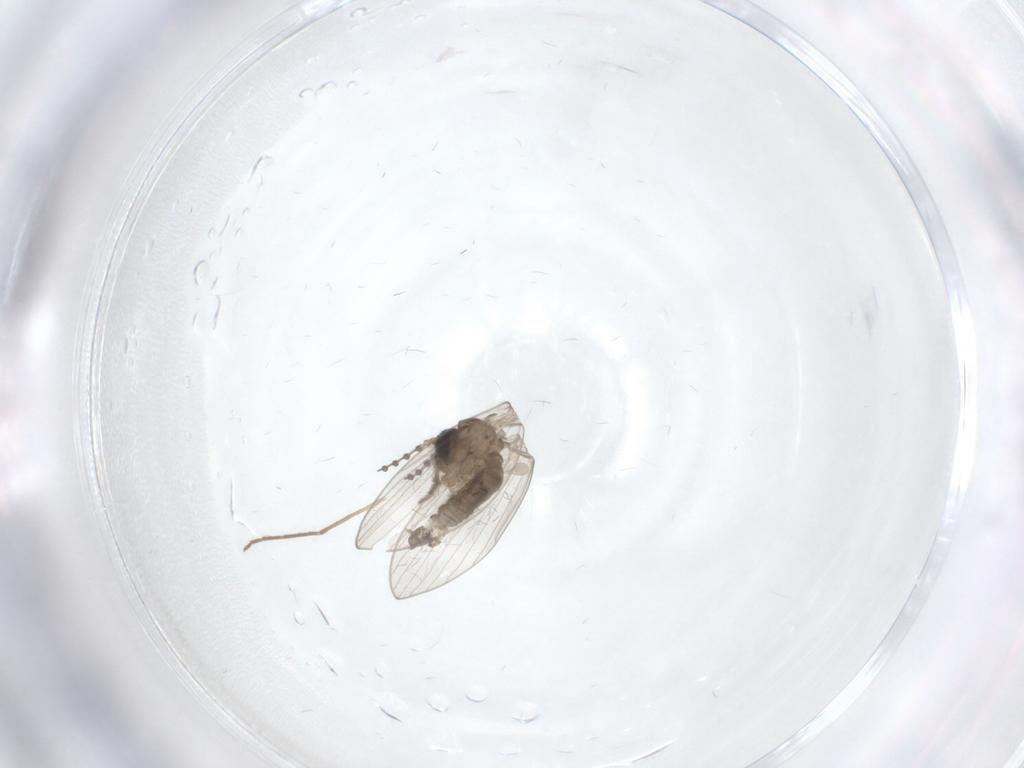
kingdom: Animalia
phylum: Arthropoda
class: Insecta
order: Diptera
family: Chironomidae
